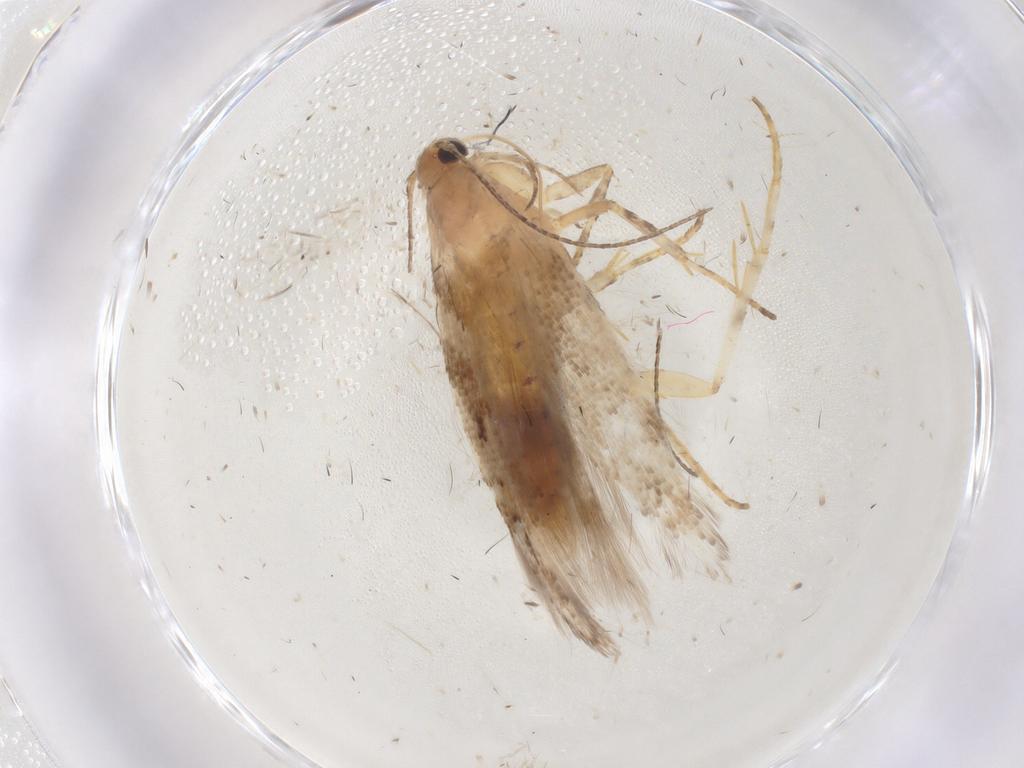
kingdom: Animalia
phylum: Arthropoda
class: Insecta
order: Lepidoptera
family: Gelechiidae
